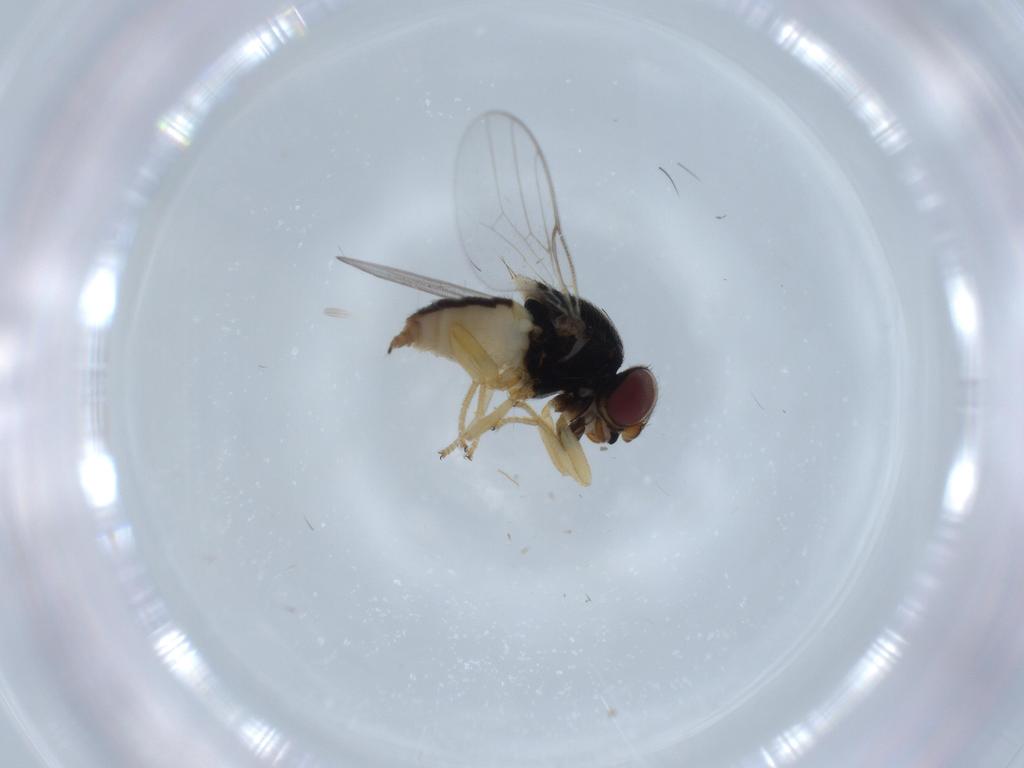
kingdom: Animalia
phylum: Arthropoda
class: Insecta
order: Diptera
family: Chloropidae
